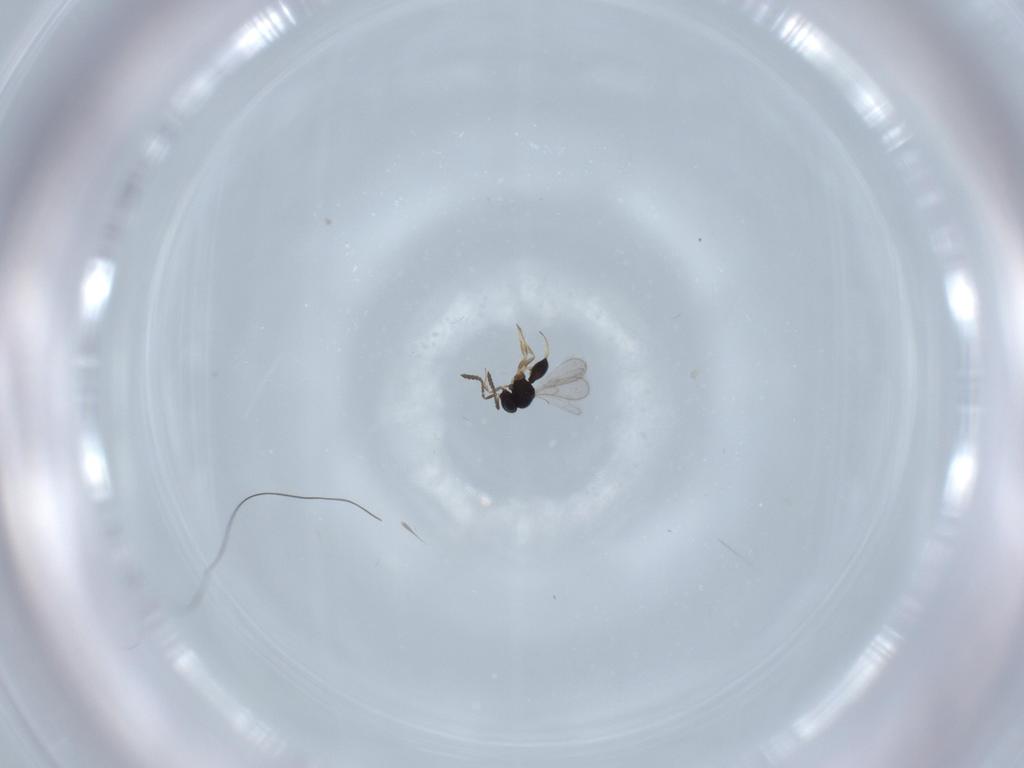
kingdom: Animalia
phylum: Arthropoda
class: Insecta
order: Hymenoptera
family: Scelionidae
